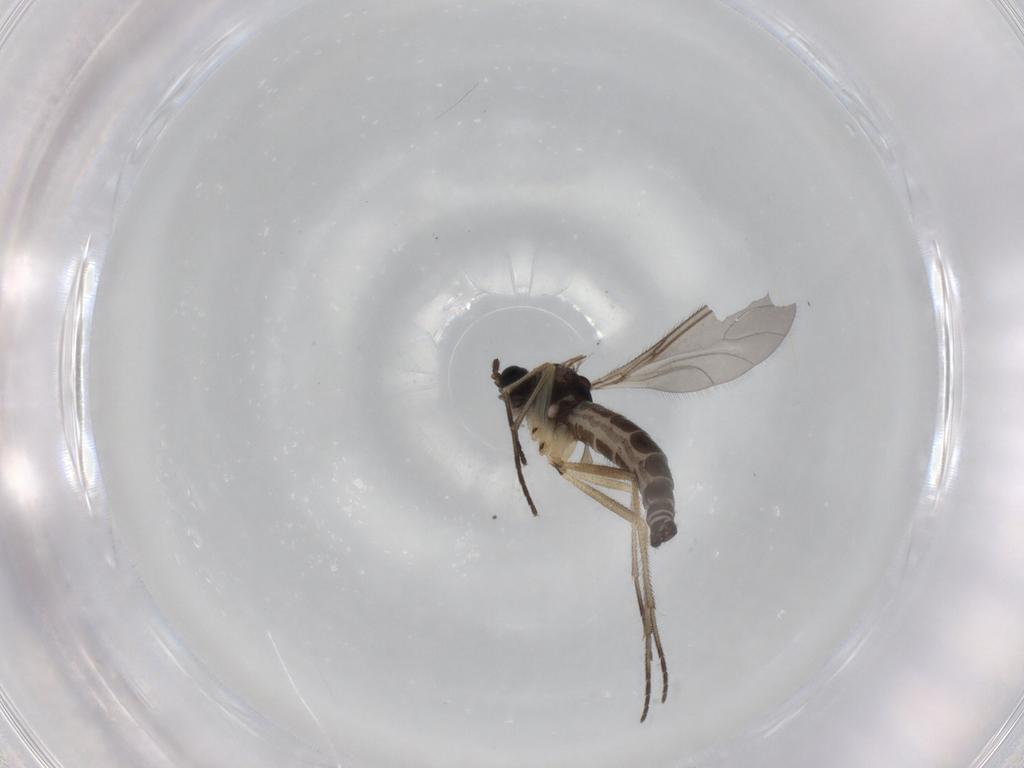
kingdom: Animalia
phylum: Arthropoda
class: Insecta
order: Diptera
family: Sciaridae
